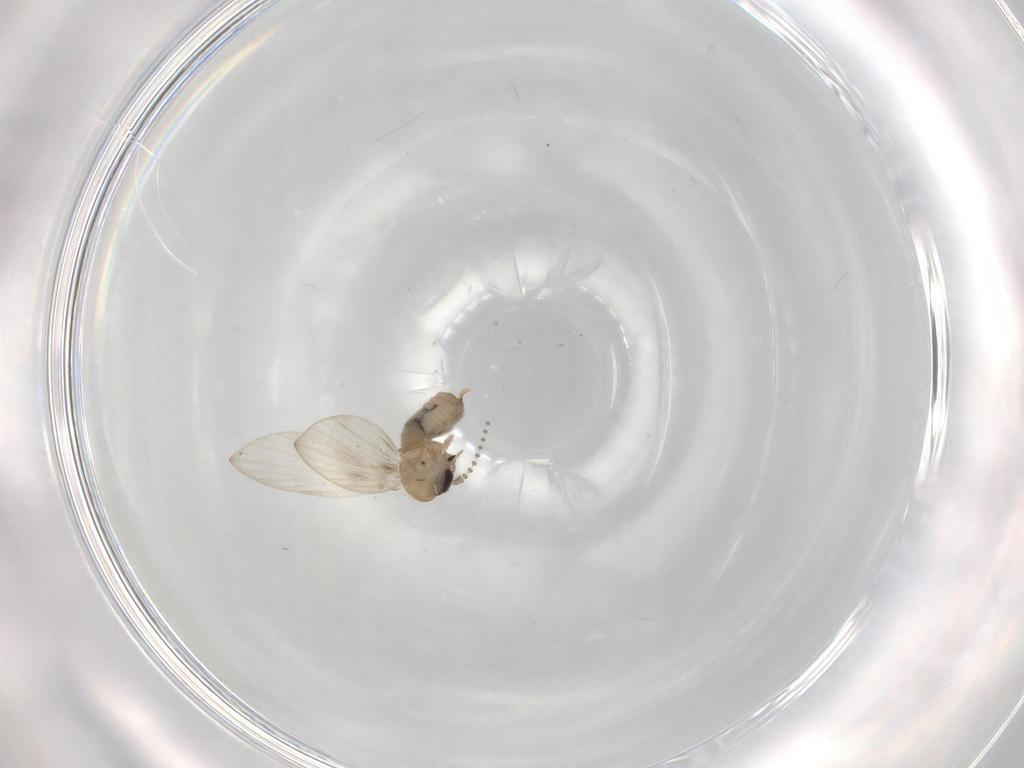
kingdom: Animalia
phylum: Arthropoda
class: Insecta
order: Diptera
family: Psychodidae
